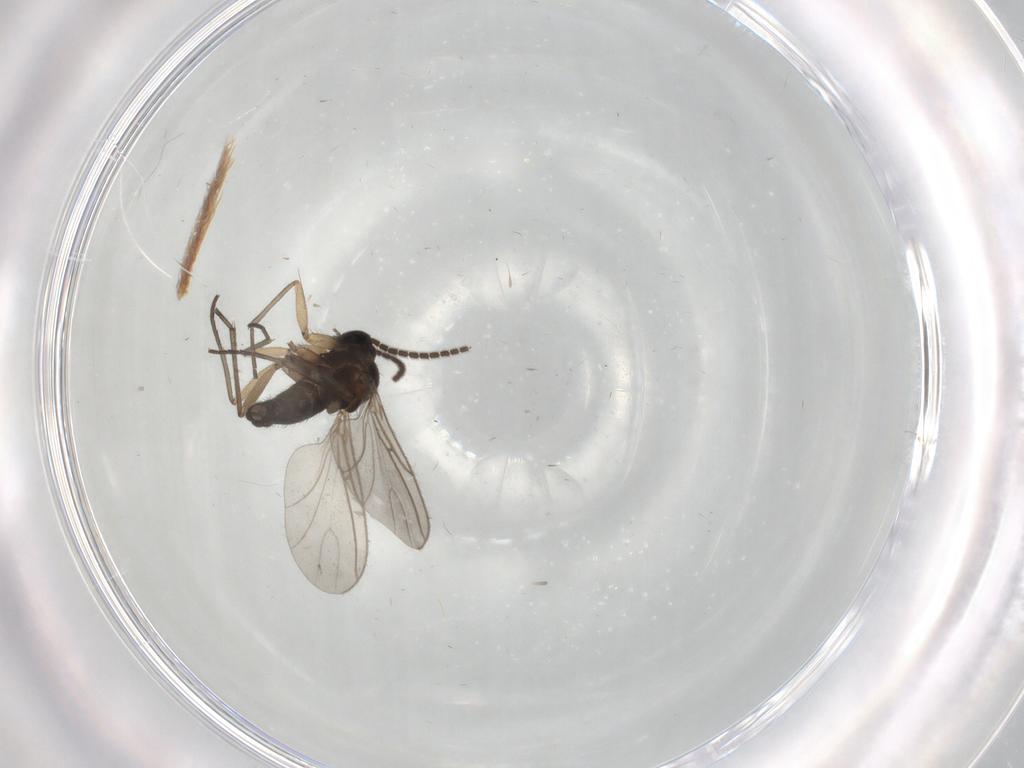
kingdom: Animalia
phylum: Arthropoda
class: Insecta
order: Diptera
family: Sciaridae
